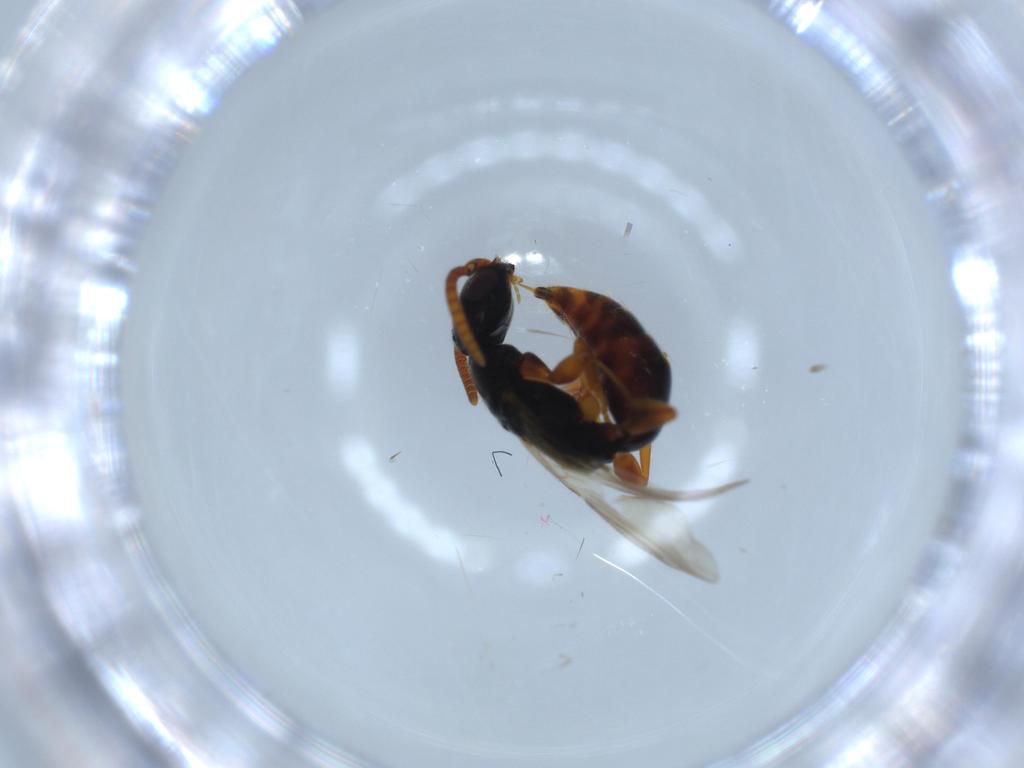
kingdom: Animalia
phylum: Arthropoda
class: Insecta
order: Hymenoptera
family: Bethylidae
